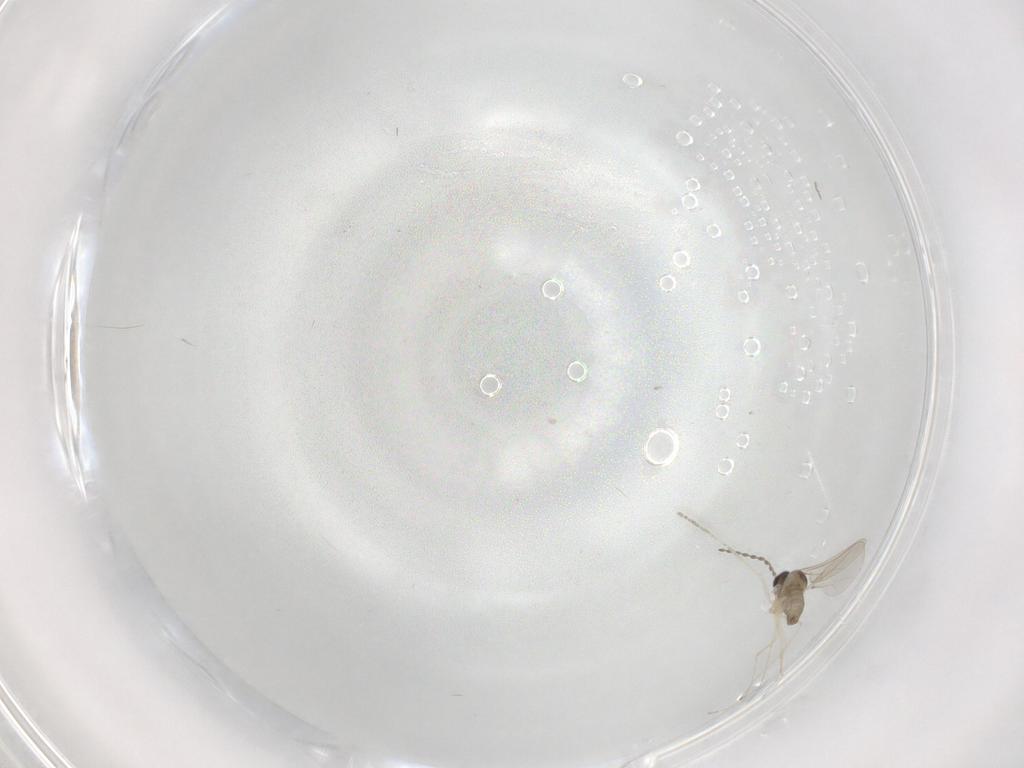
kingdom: Animalia
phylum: Arthropoda
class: Insecta
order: Diptera
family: Cecidomyiidae
